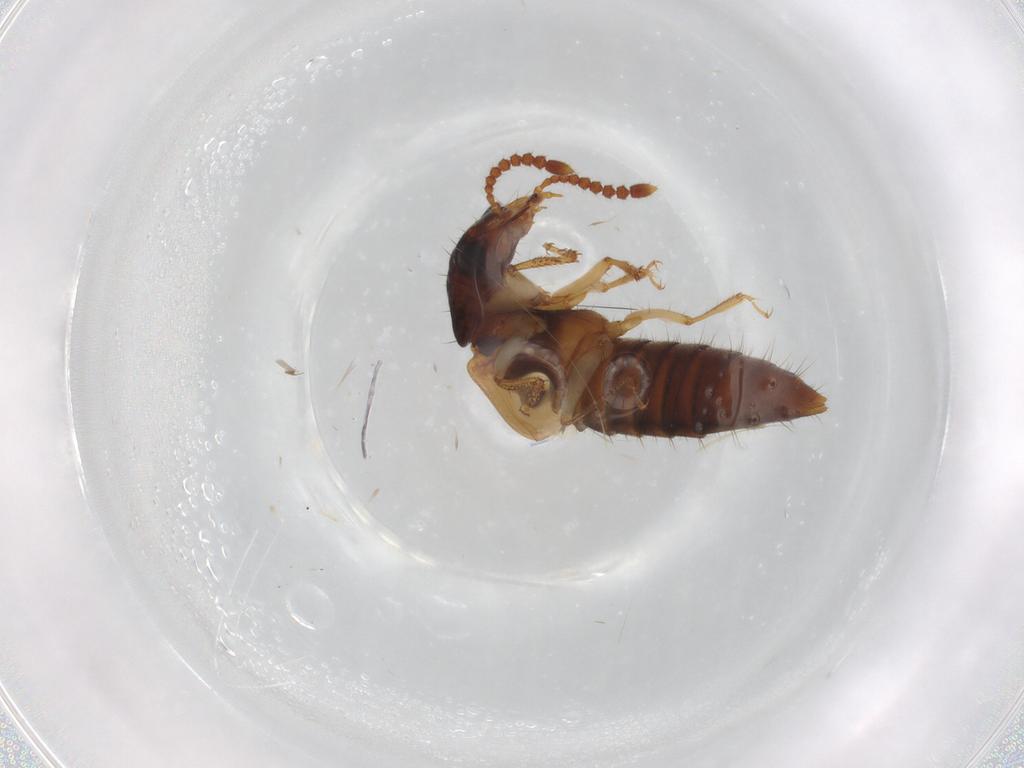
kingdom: Animalia
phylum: Arthropoda
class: Insecta
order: Coleoptera
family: Staphylinidae
